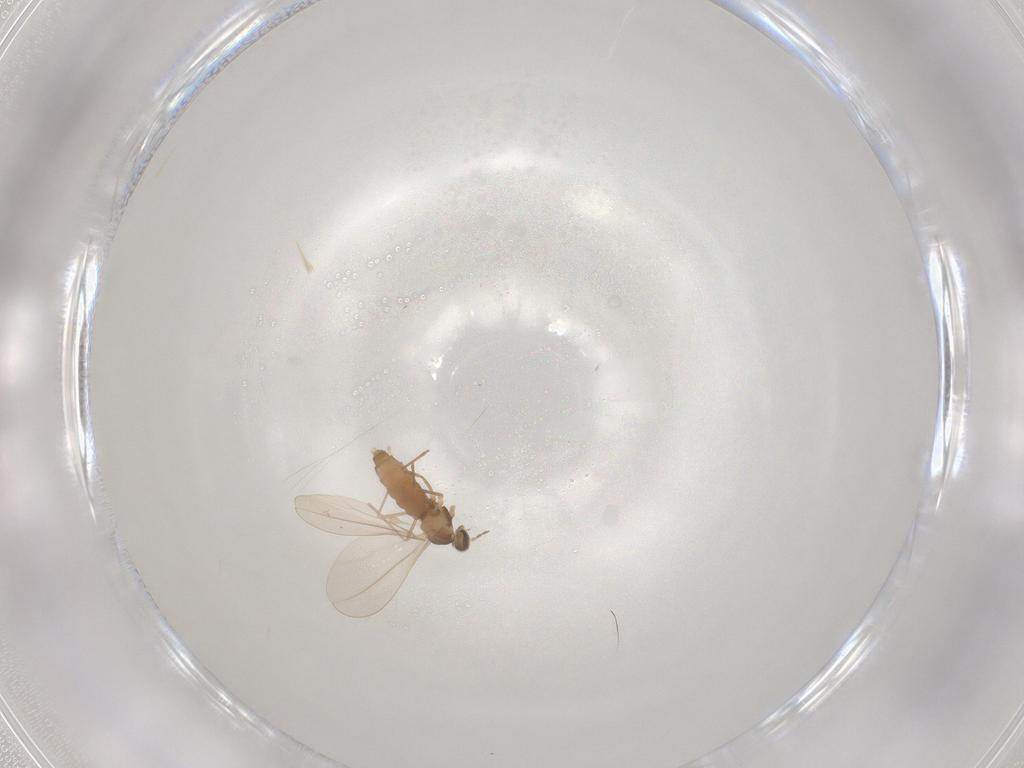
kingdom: Animalia
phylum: Arthropoda
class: Insecta
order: Diptera
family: Cecidomyiidae
